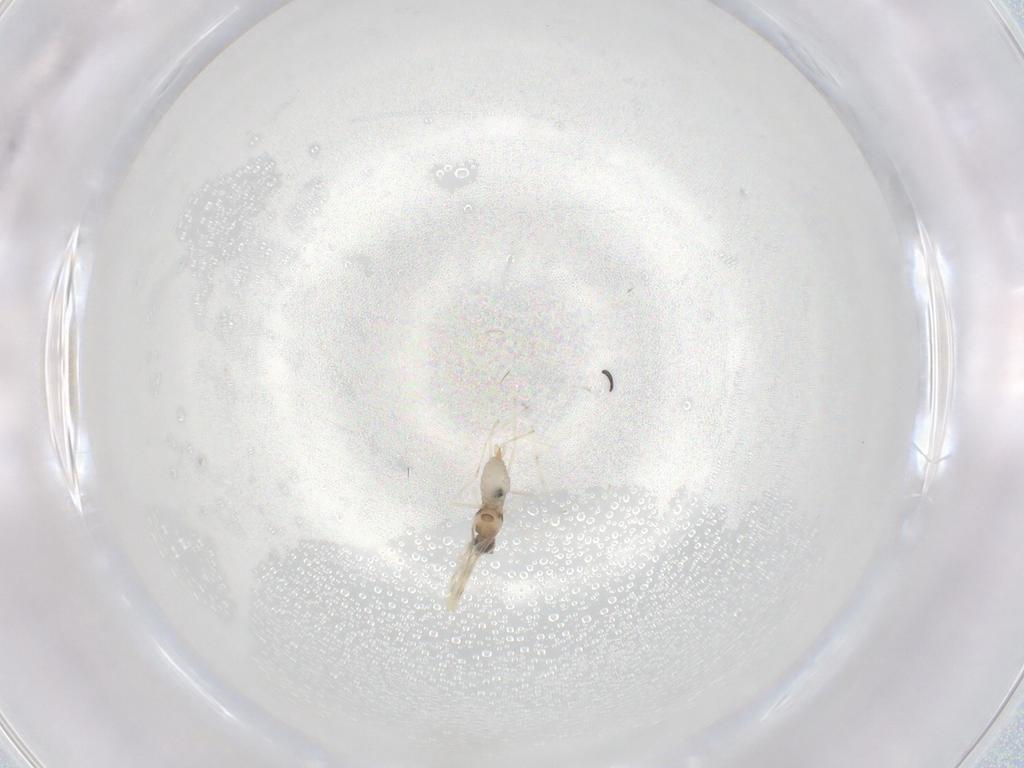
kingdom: Animalia
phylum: Arthropoda
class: Insecta
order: Diptera
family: Cecidomyiidae
